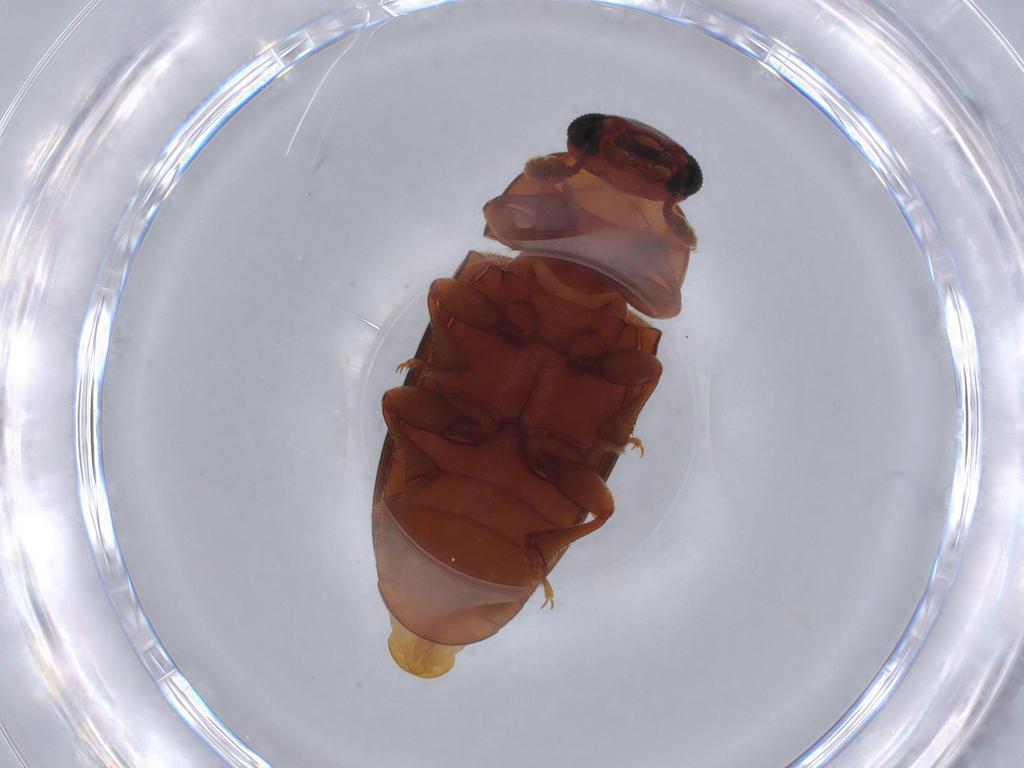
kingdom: Animalia
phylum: Arthropoda
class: Insecta
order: Coleoptera
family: Erotylidae
